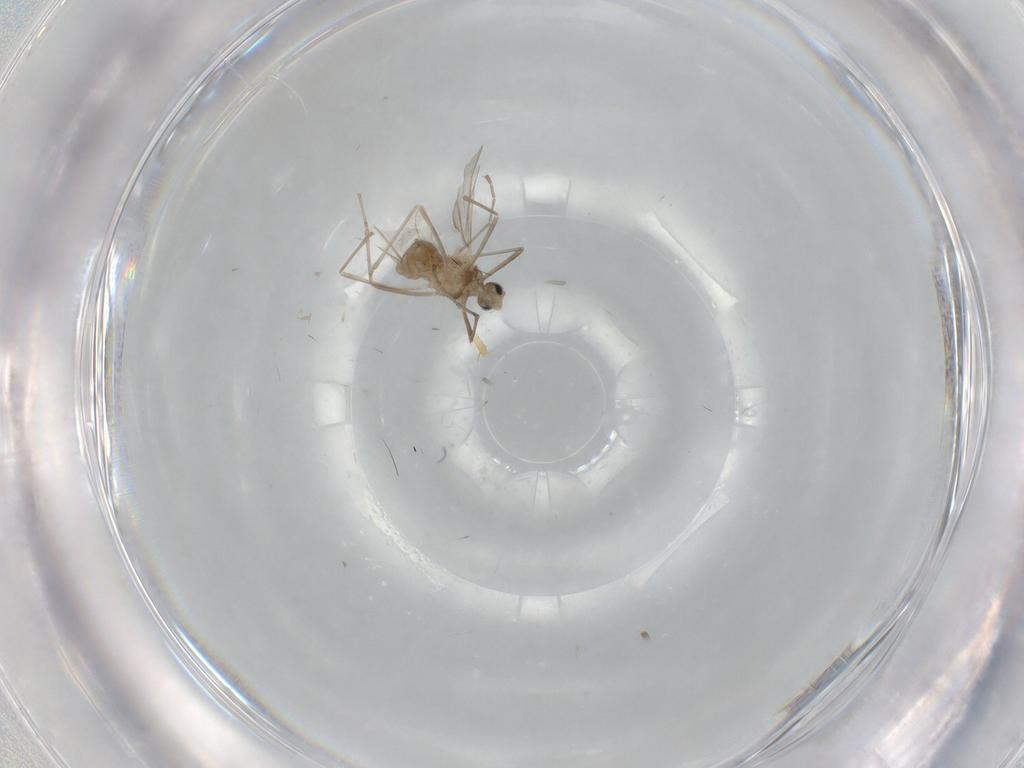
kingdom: Animalia
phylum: Arthropoda
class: Insecta
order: Diptera
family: Cecidomyiidae
